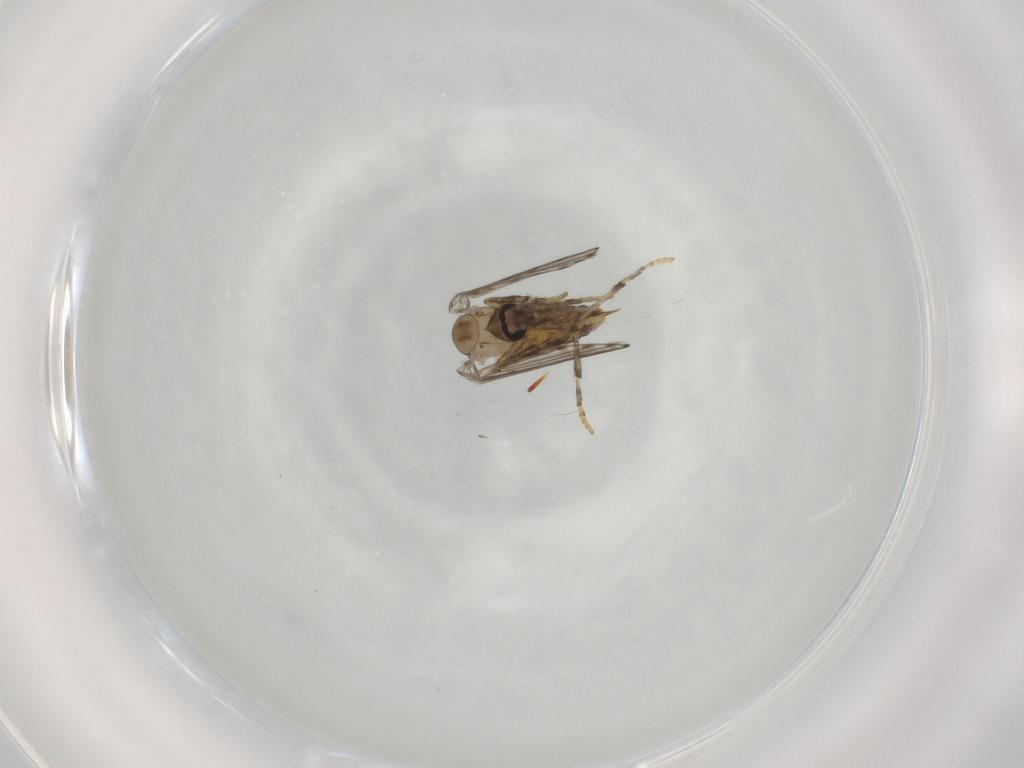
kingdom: Animalia
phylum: Arthropoda
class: Insecta
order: Diptera
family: Psychodidae
